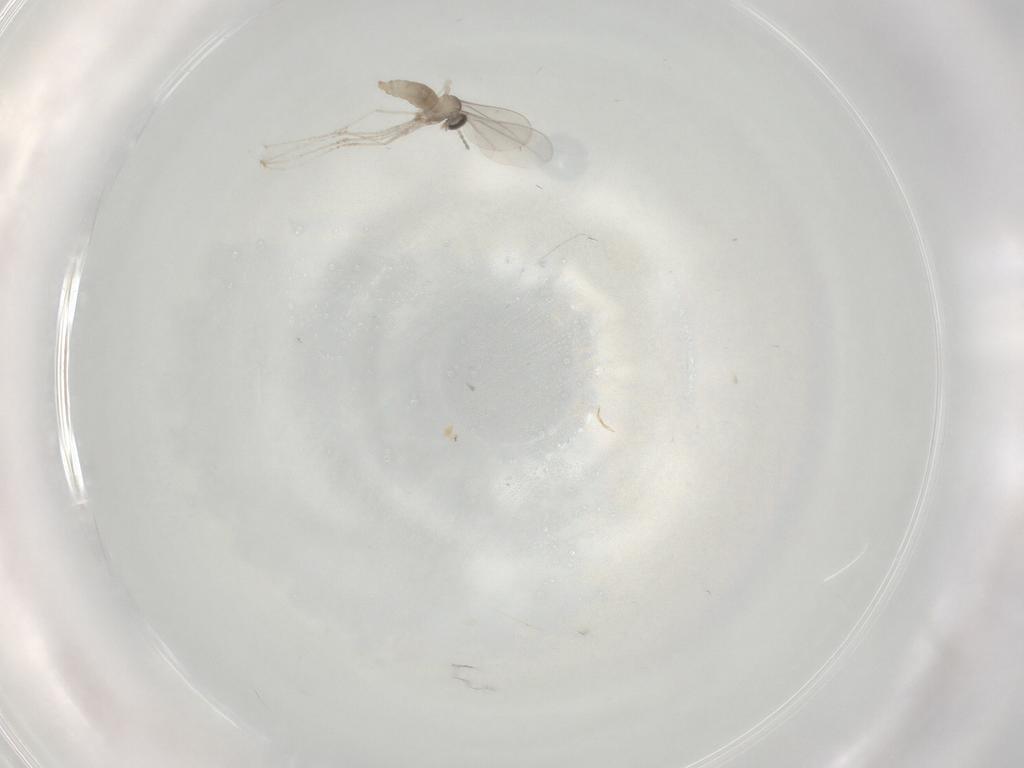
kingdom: Animalia
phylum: Arthropoda
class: Insecta
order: Diptera
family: Cecidomyiidae
